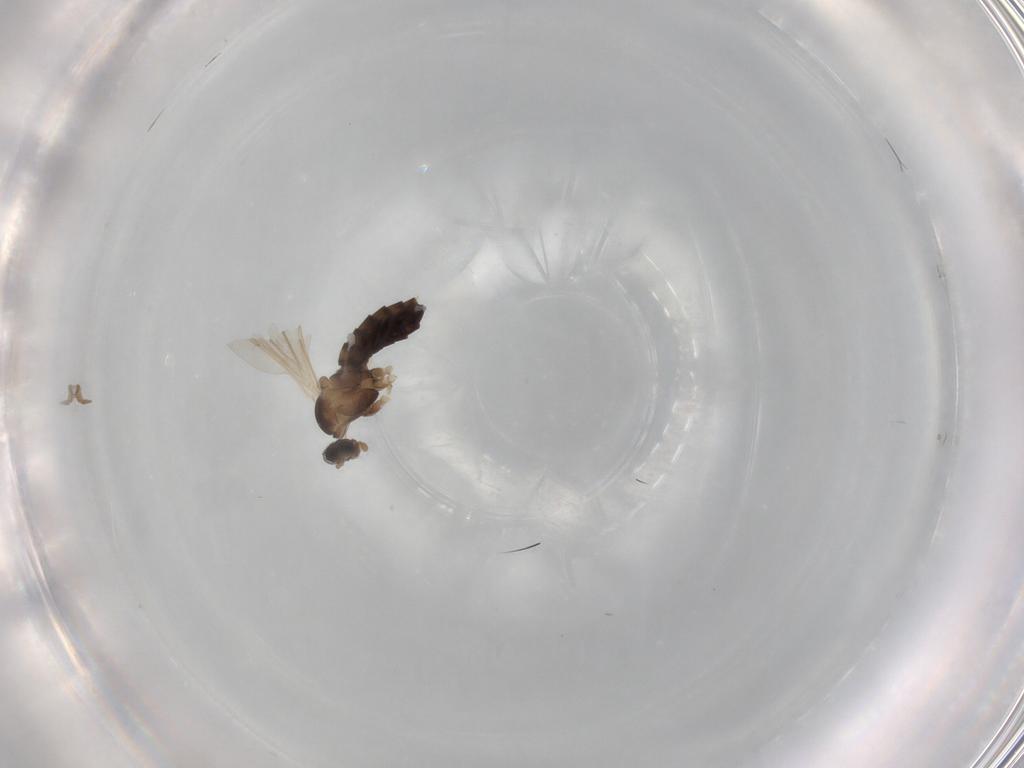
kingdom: Animalia
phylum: Arthropoda
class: Insecta
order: Diptera
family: Cecidomyiidae
